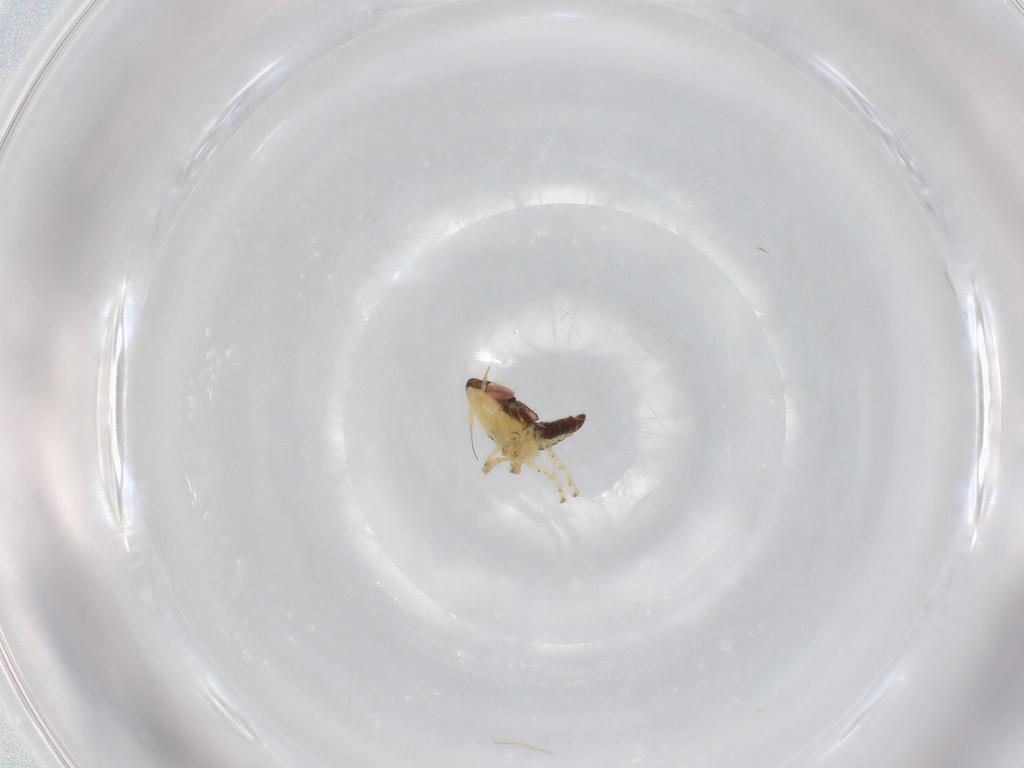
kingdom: Animalia
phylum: Arthropoda
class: Insecta
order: Hemiptera
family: Cicadellidae
